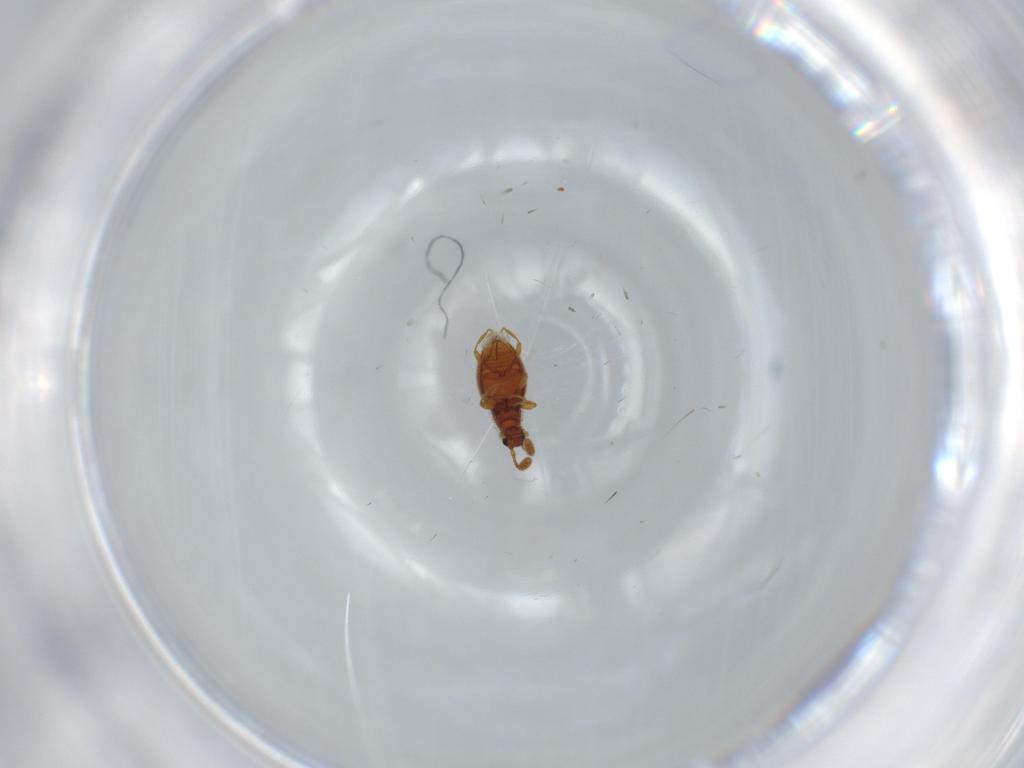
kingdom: Animalia
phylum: Arthropoda
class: Insecta
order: Coleoptera
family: Elateridae
